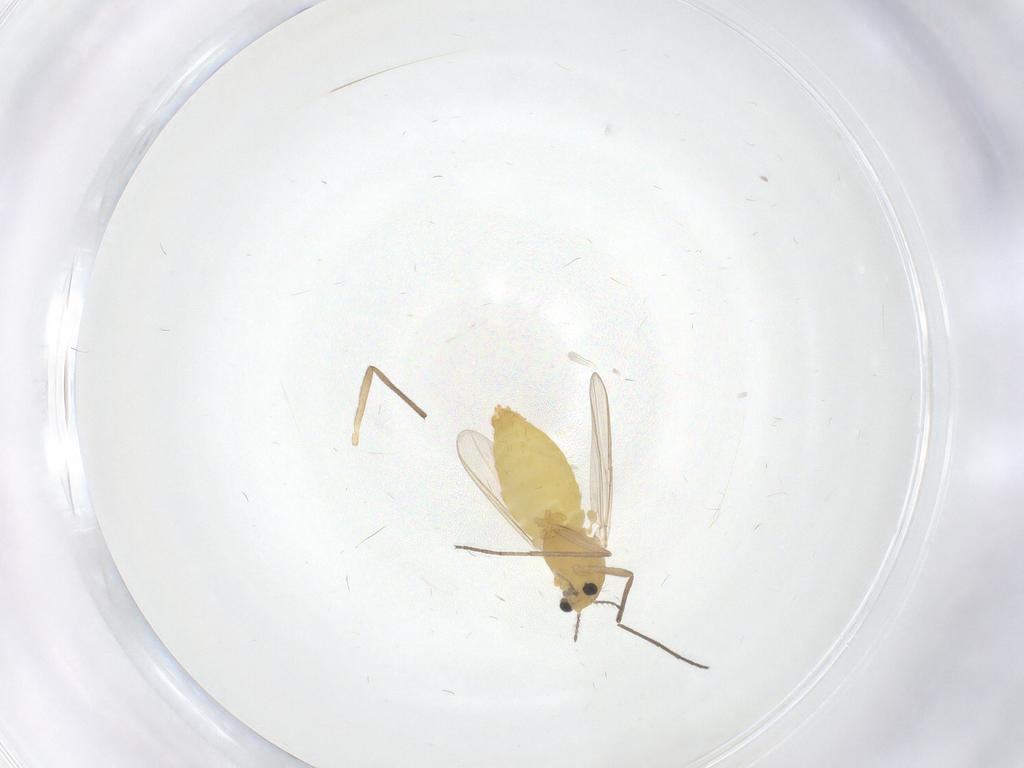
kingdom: Animalia
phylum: Arthropoda
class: Insecta
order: Diptera
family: Chironomidae
